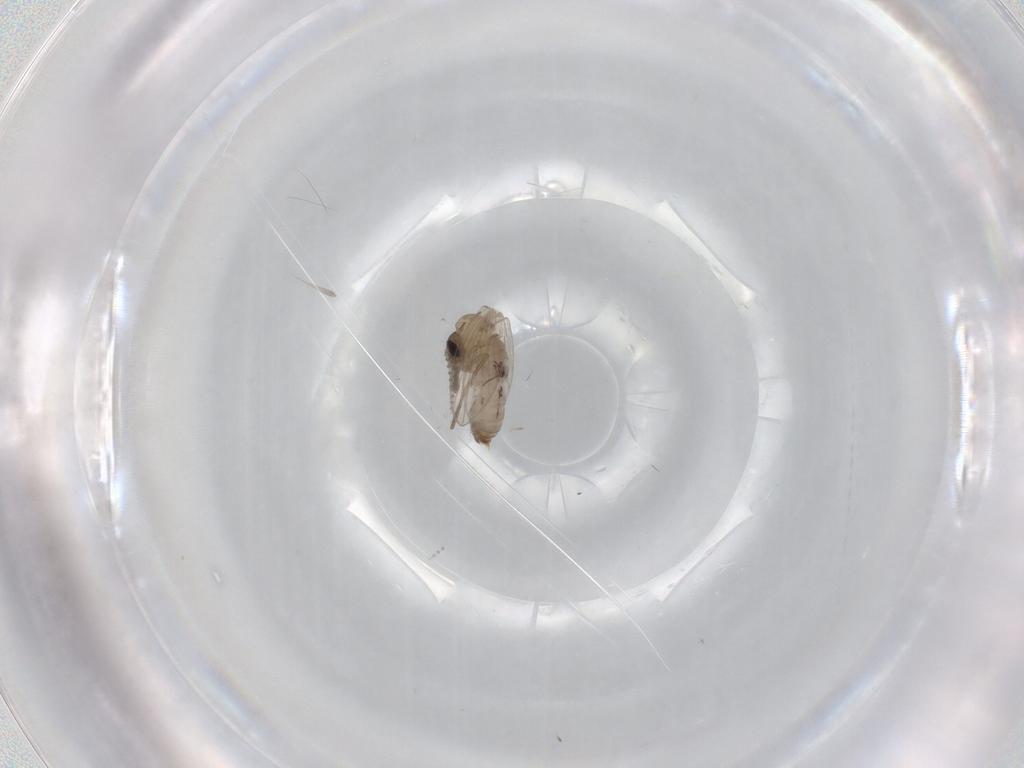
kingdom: Animalia
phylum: Arthropoda
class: Insecta
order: Diptera
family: Psychodidae
